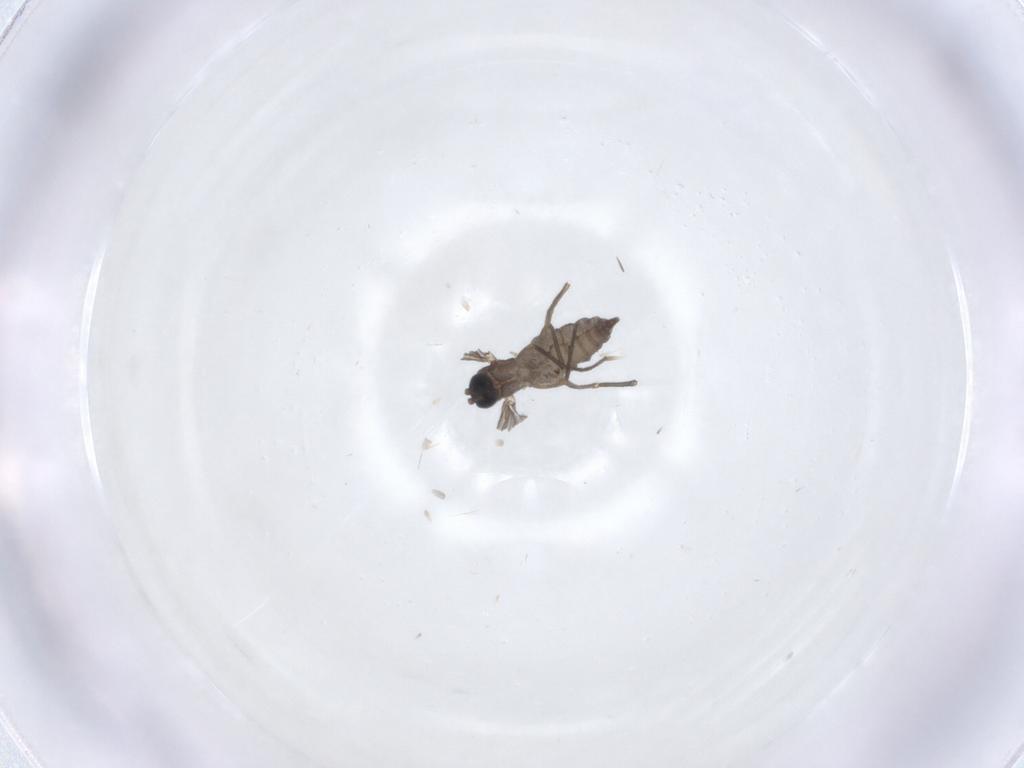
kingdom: Animalia
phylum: Arthropoda
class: Insecta
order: Diptera
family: Sciaridae
